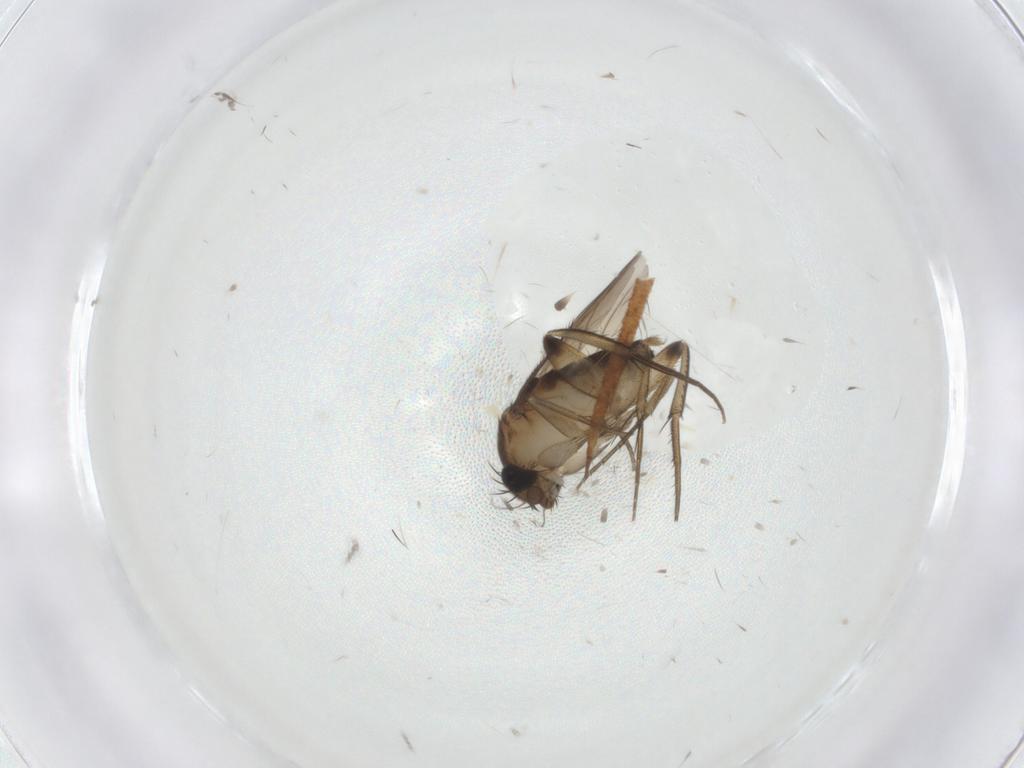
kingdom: Animalia
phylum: Arthropoda
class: Insecta
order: Diptera
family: Phoridae
